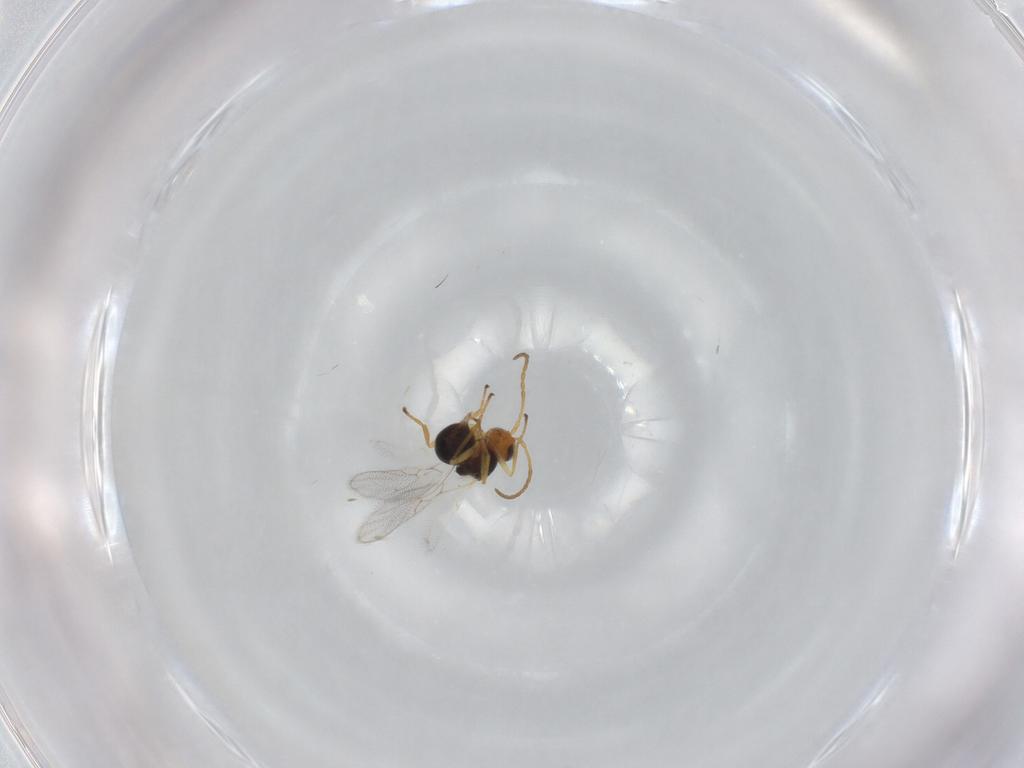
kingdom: Animalia
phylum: Arthropoda
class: Insecta
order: Hymenoptera
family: Figitidae
